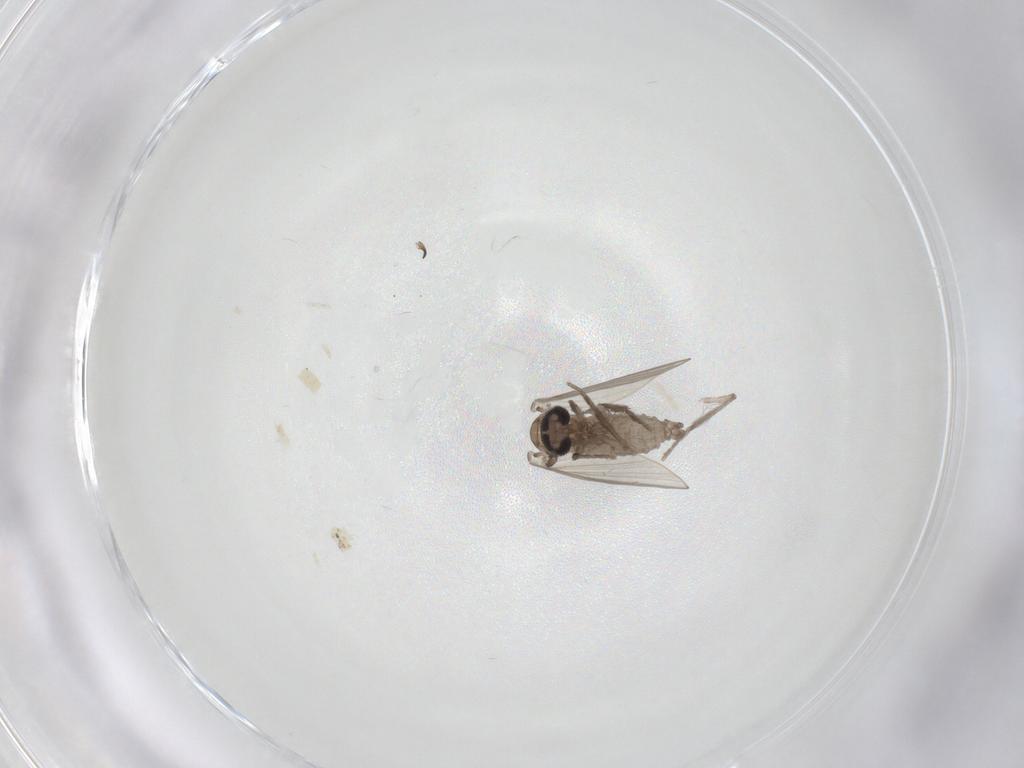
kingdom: Animalia
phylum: Arthropoda
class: Insecta
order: Diptera
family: Psychodidae
